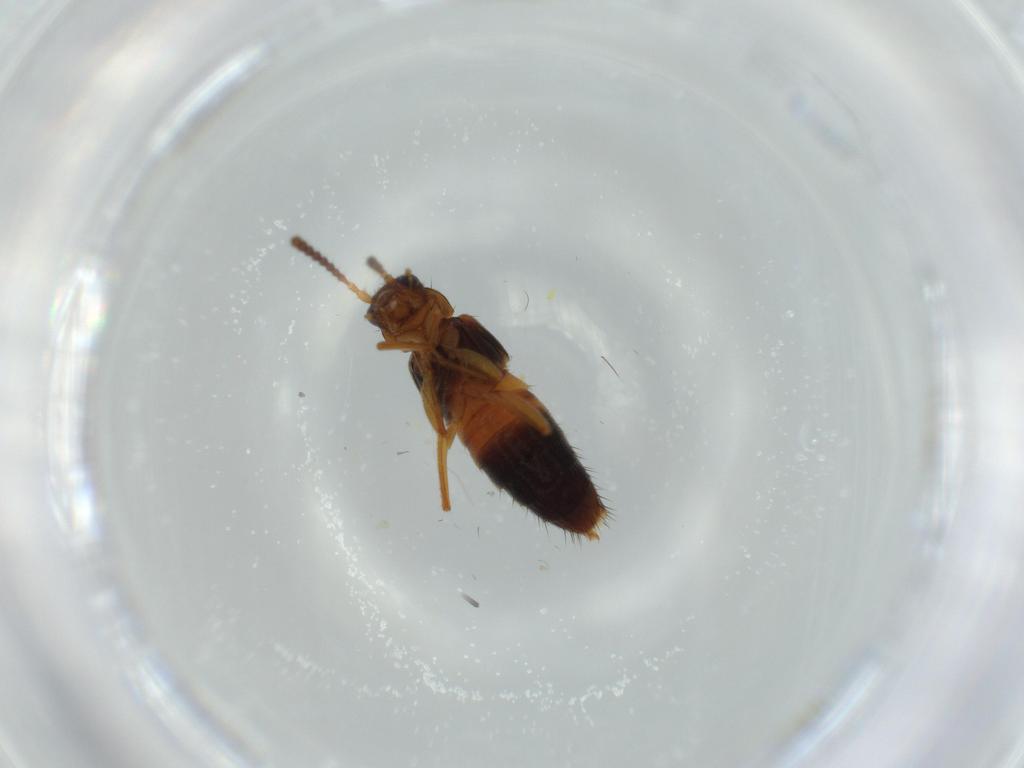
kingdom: Animalia
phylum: Arthropoda
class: Insecta
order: Coleoptera
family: Staphylinidae
